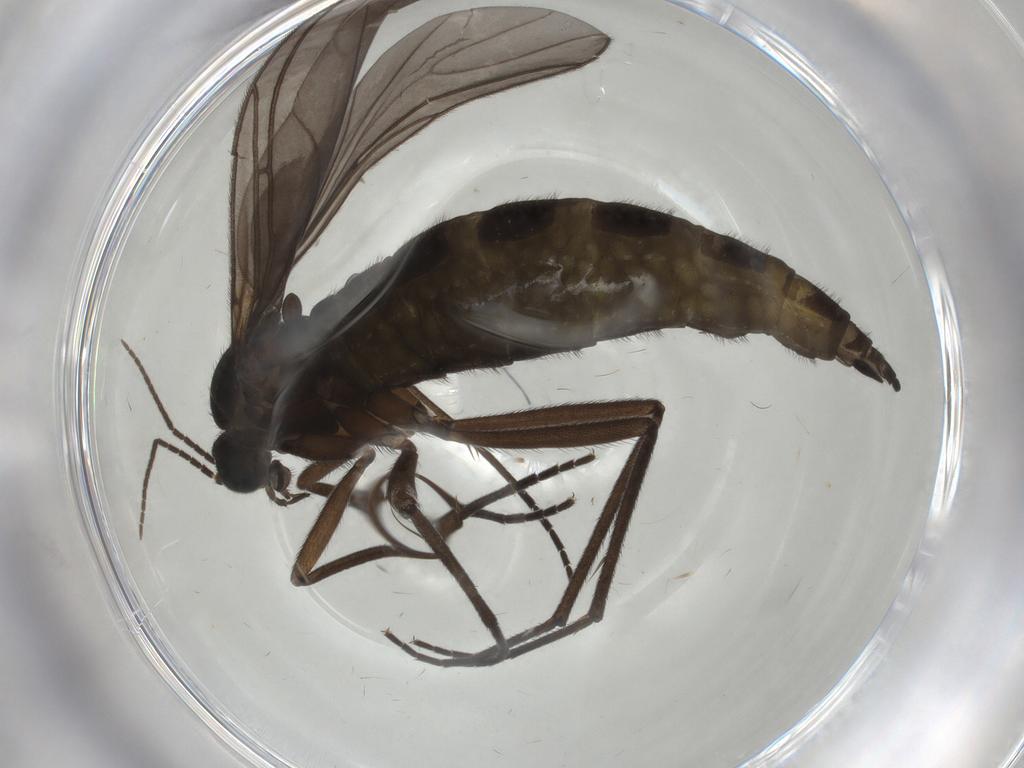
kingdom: Animalia
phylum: Arthropoda
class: Insecta
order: Diptera
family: Sciaridae
